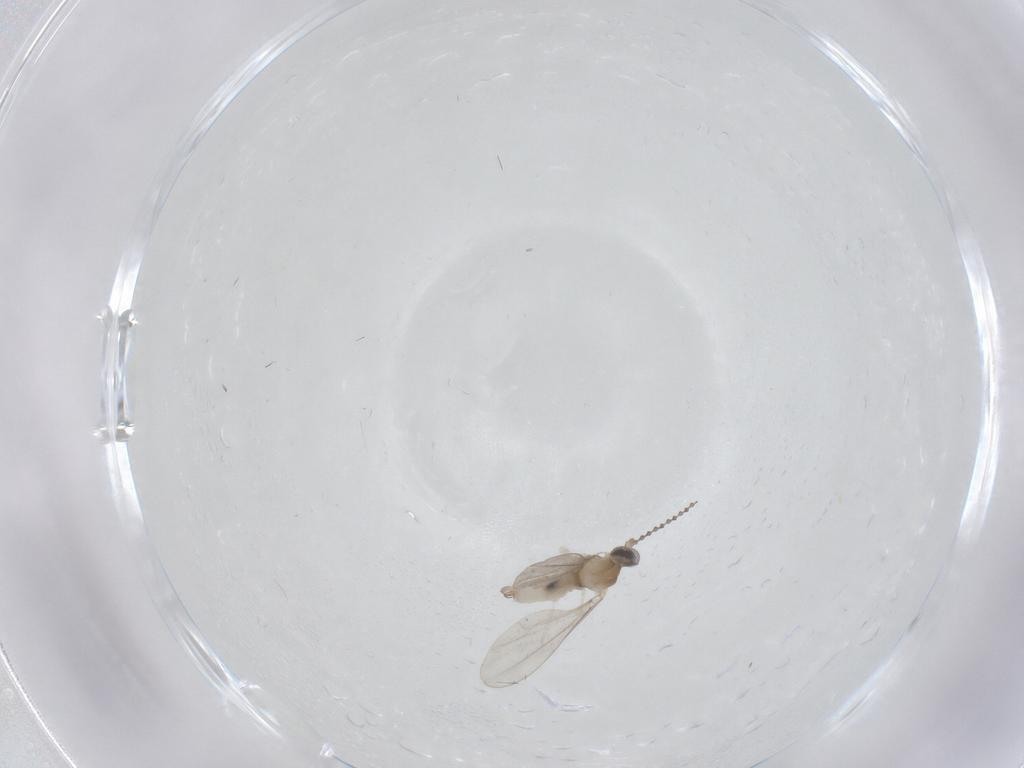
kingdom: Animalia
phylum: Arthropoda
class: Insecta
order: Diptera
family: Cecidomyiidae
